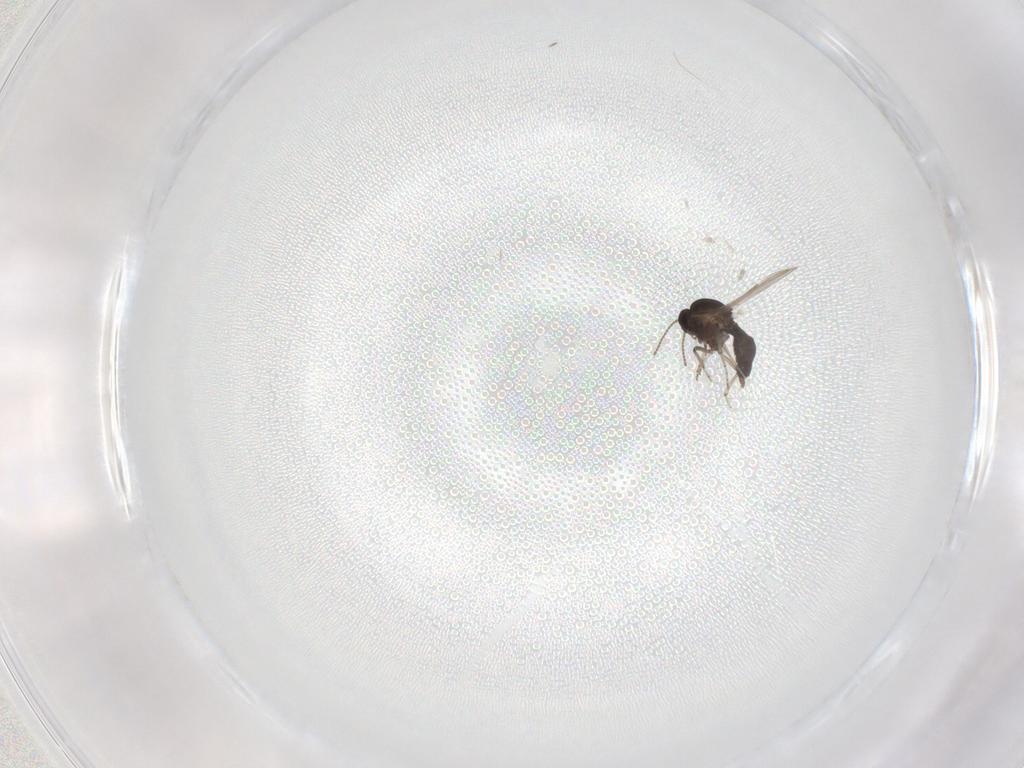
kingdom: Animalia
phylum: Arthropoda
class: Insecta
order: Diptera
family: Ceratopogonidae
